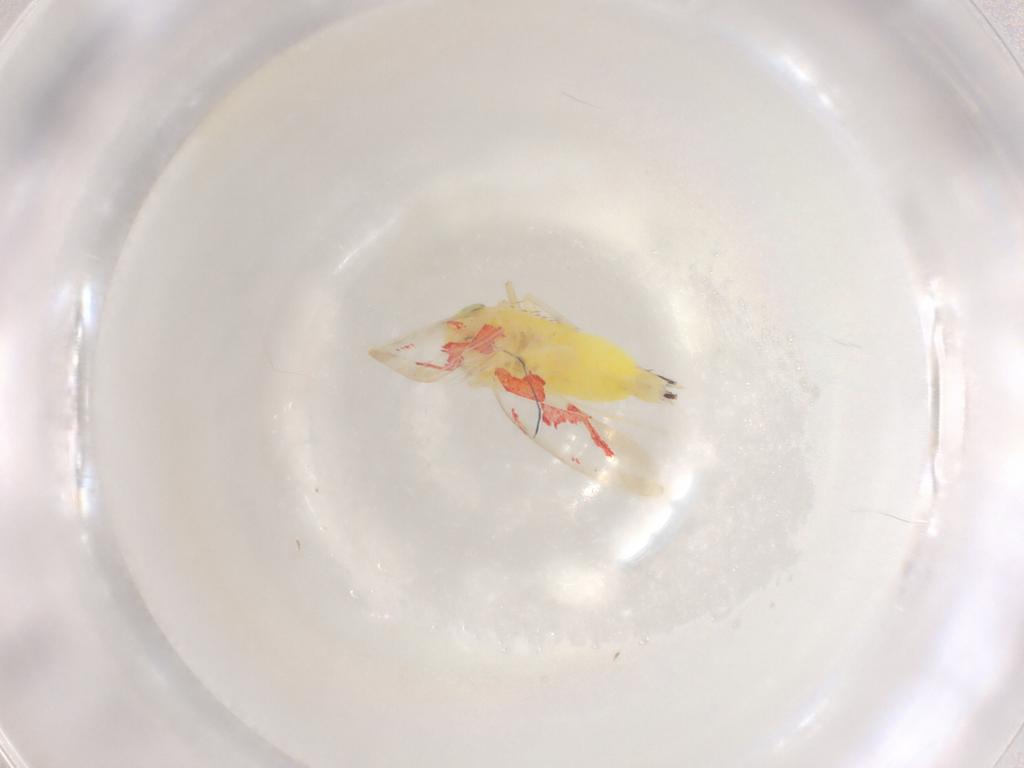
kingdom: Animalia
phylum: Arthropoda
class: Insecta
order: Hemiptera
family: Cicadellidae
